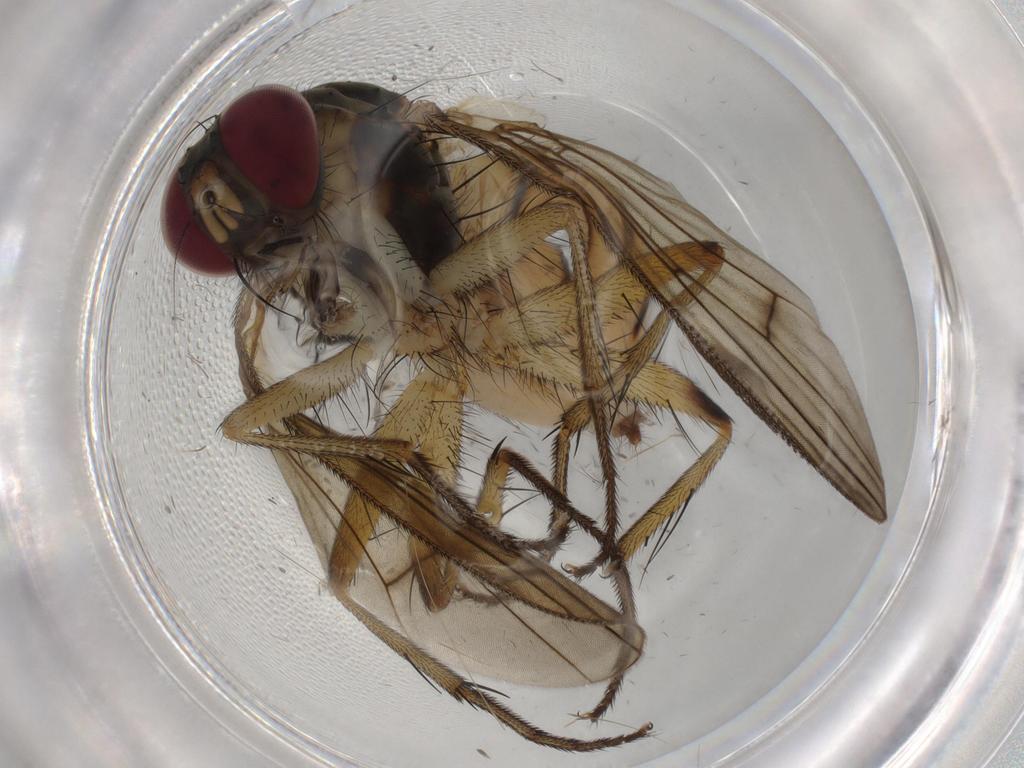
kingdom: Animalia
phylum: Arthropoda
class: Insecta
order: Diptera
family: Muscidae
